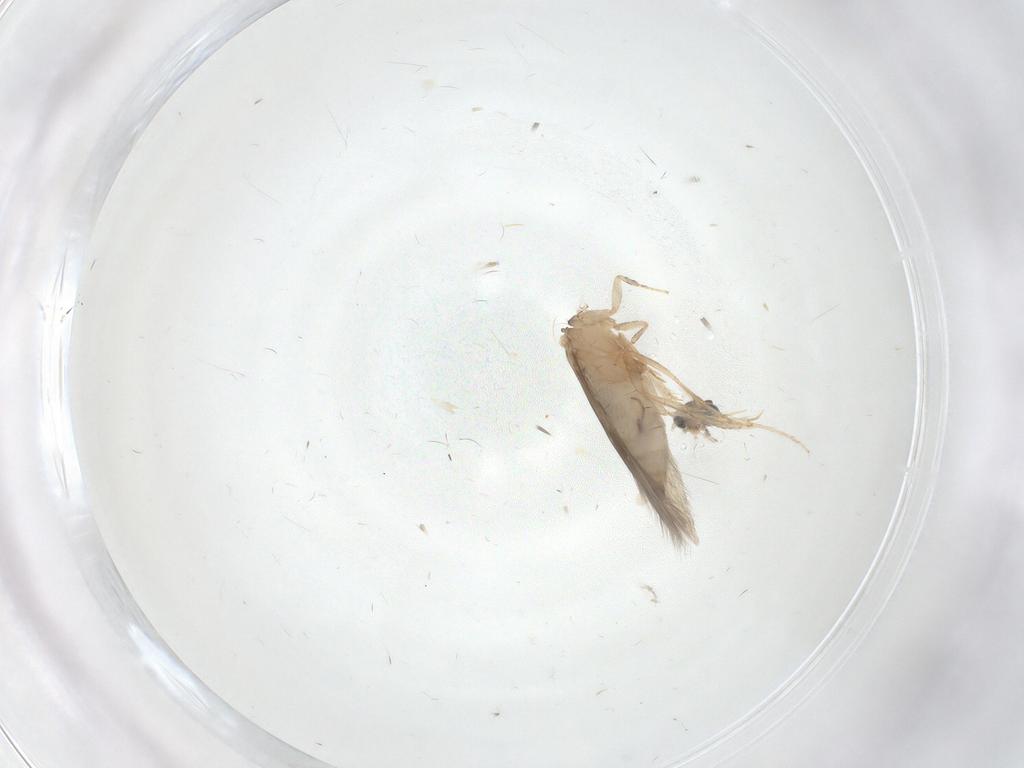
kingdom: Animalia
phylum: Arthropoda
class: Insecta
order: Trichoptera
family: Hydroptilidae
